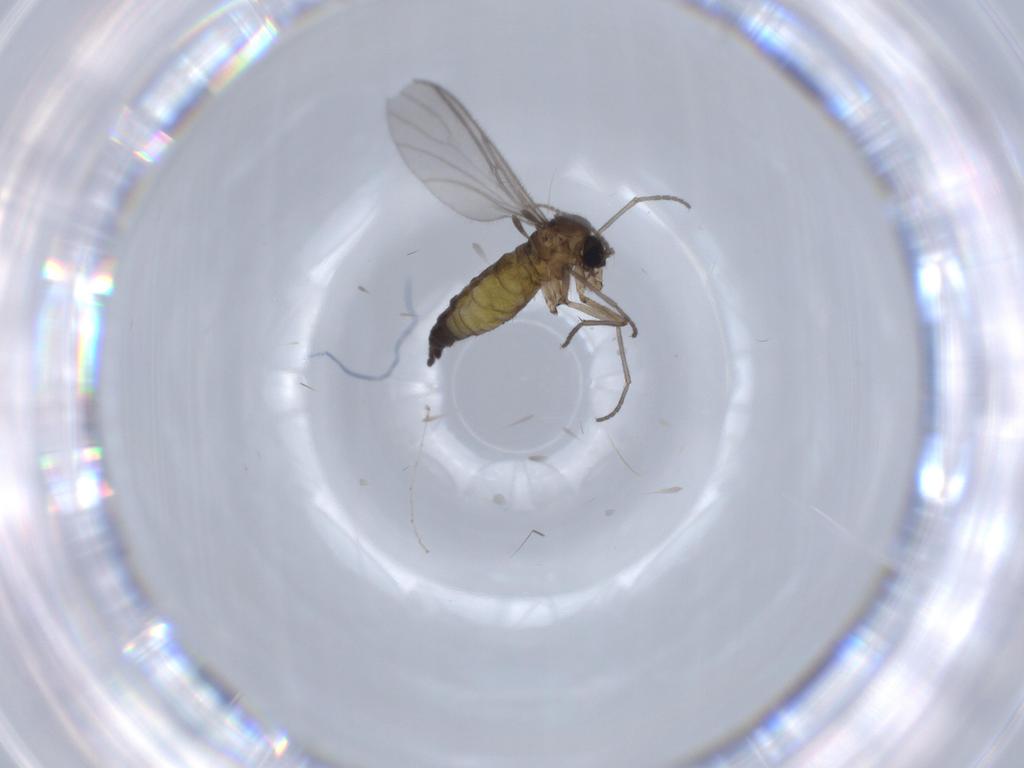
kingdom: Animalia
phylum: Arthropoda
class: Insecta
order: Diptera
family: Sciaridae
